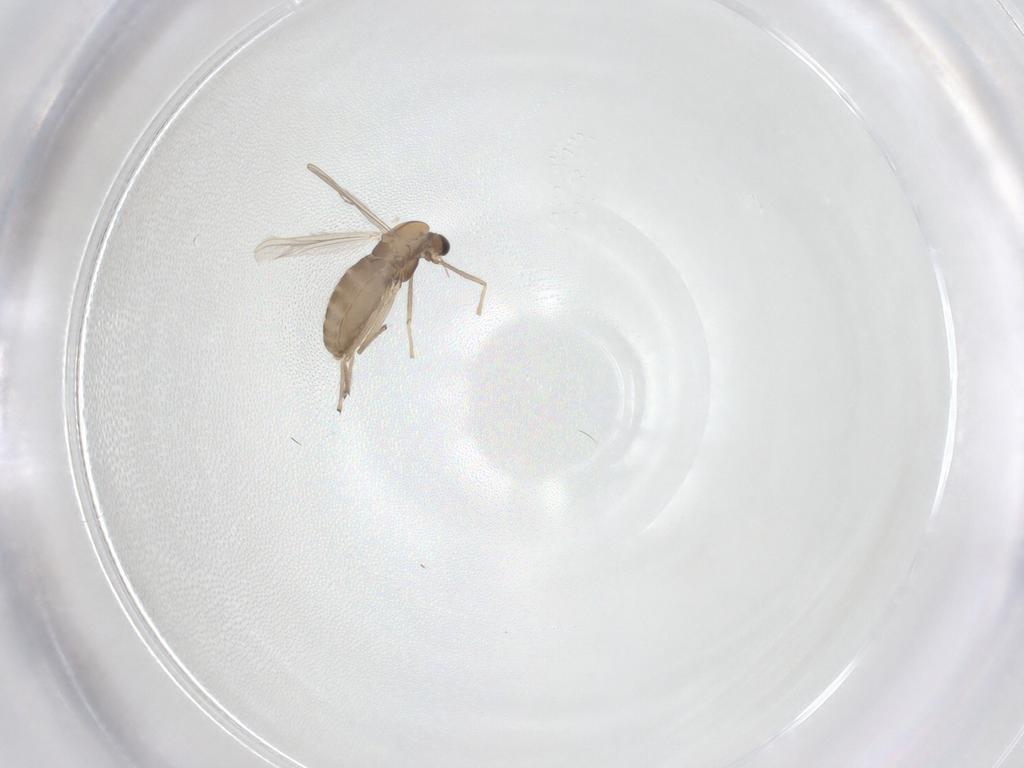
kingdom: Animalia
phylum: Arthropoda
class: Insecta
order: Diptera
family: Chironomidae
